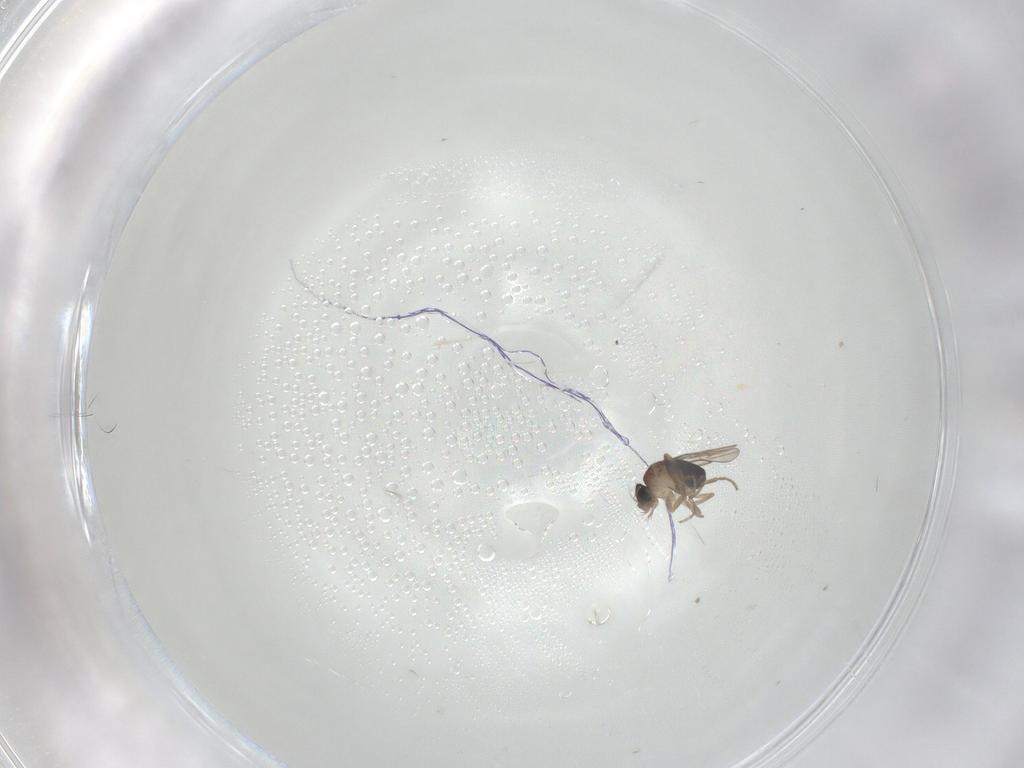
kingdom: Animalia
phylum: Arthropoda
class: Insecta
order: Diptera
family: Phoridae
